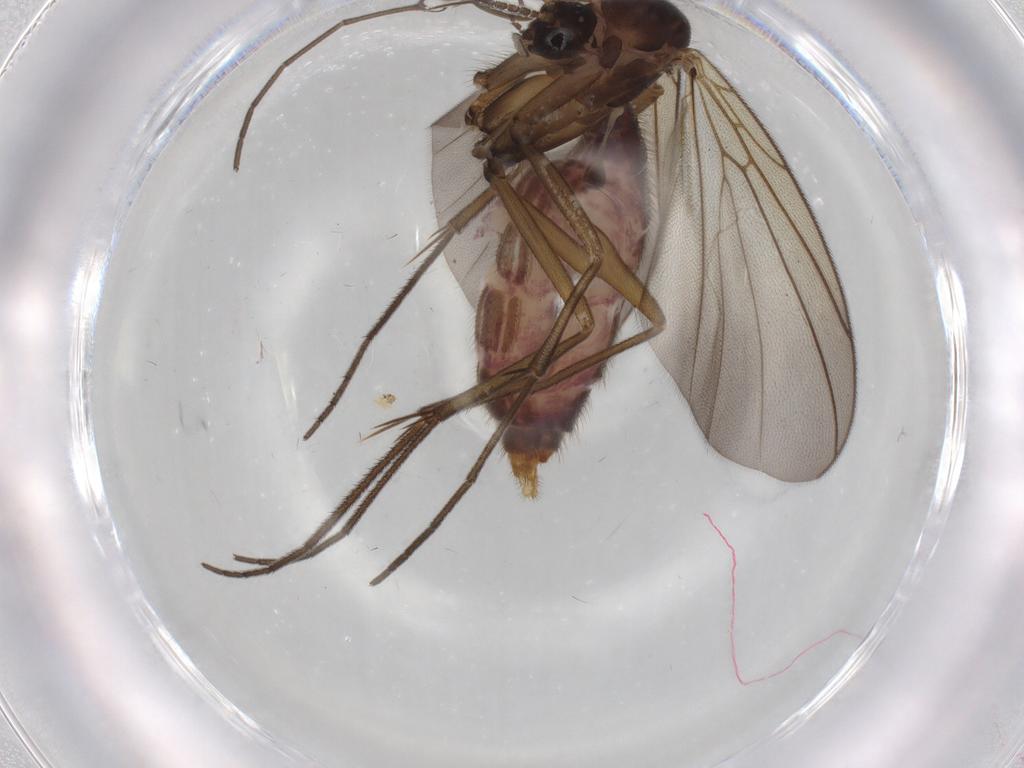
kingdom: Animalia
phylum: Arthropoda
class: Insecta
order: Diptera
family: Mycetophilidae
